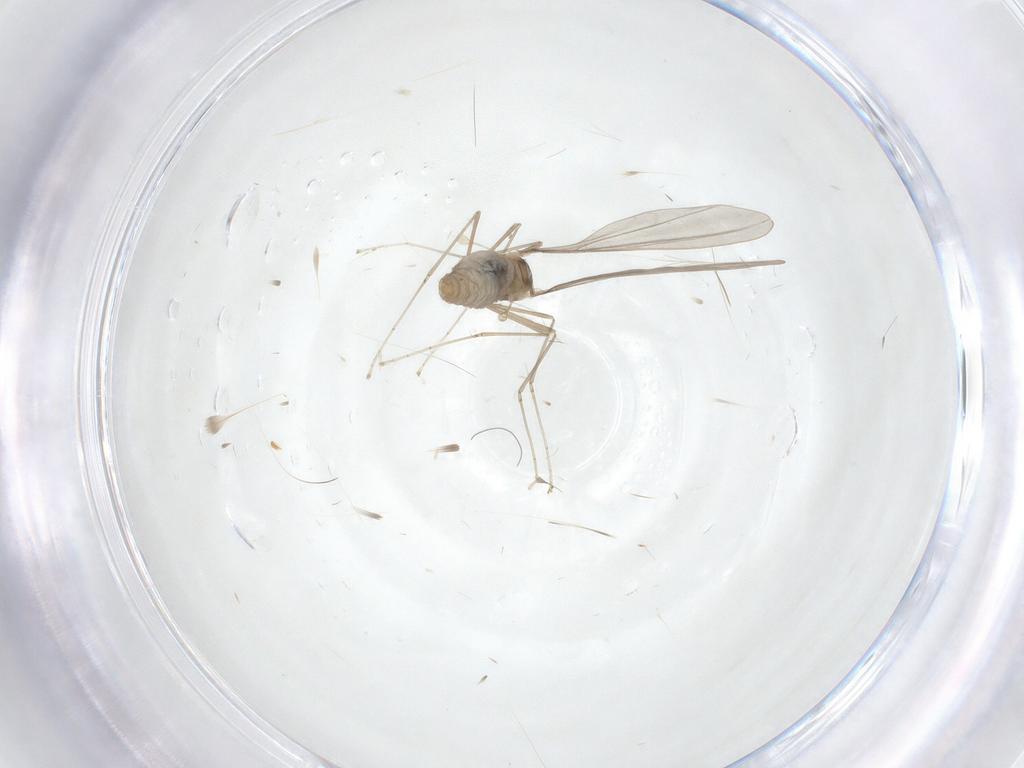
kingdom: Animalia
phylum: Arthropoda
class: Insecta
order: Diptera
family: Cecidomyiidae
